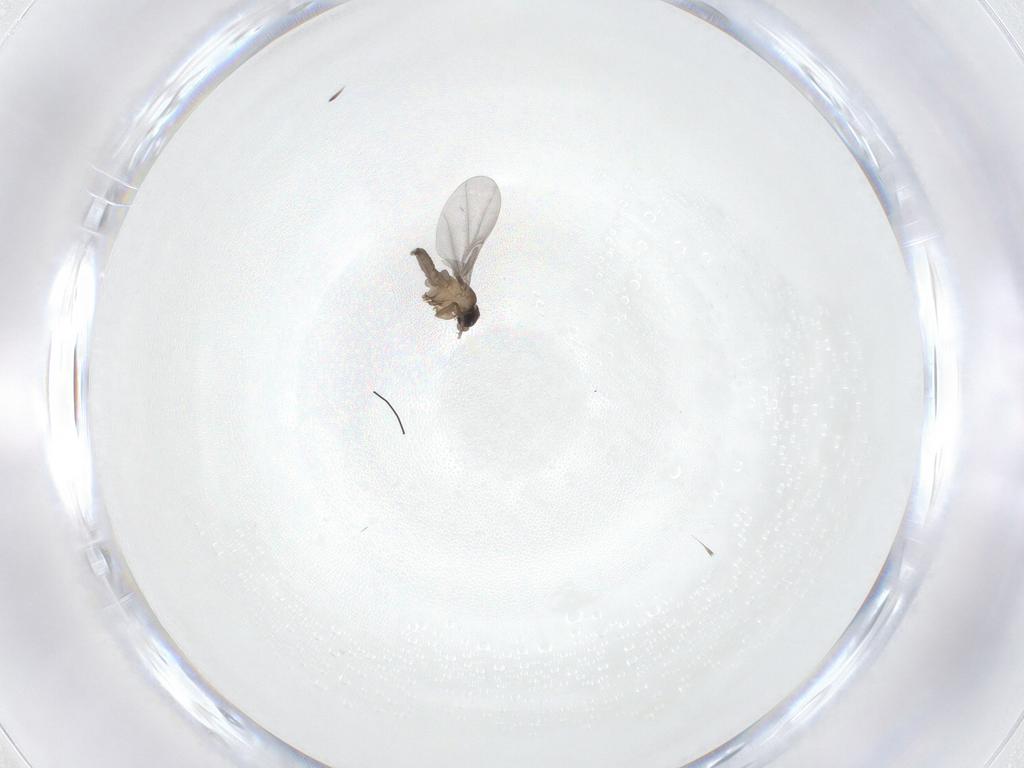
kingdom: Animalia
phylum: Arthropoda
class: Insecta
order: Diptera
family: Phoridae
